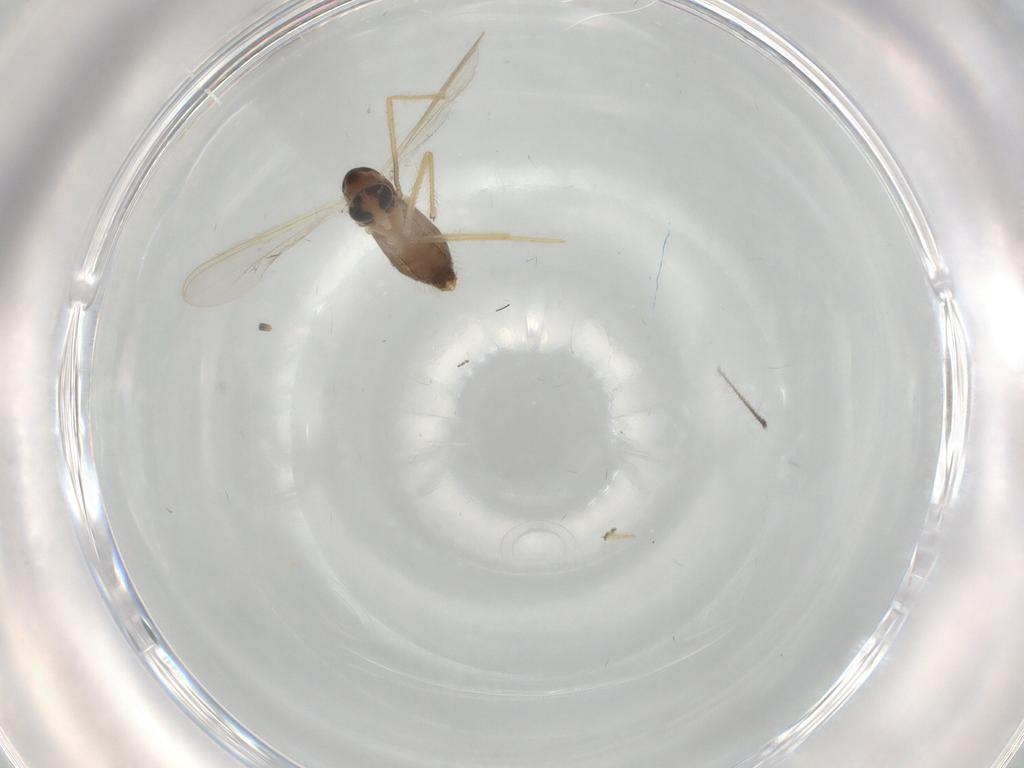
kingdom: Animalia
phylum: Arthropoda
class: Insecta
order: Diptera
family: Chironomidae
